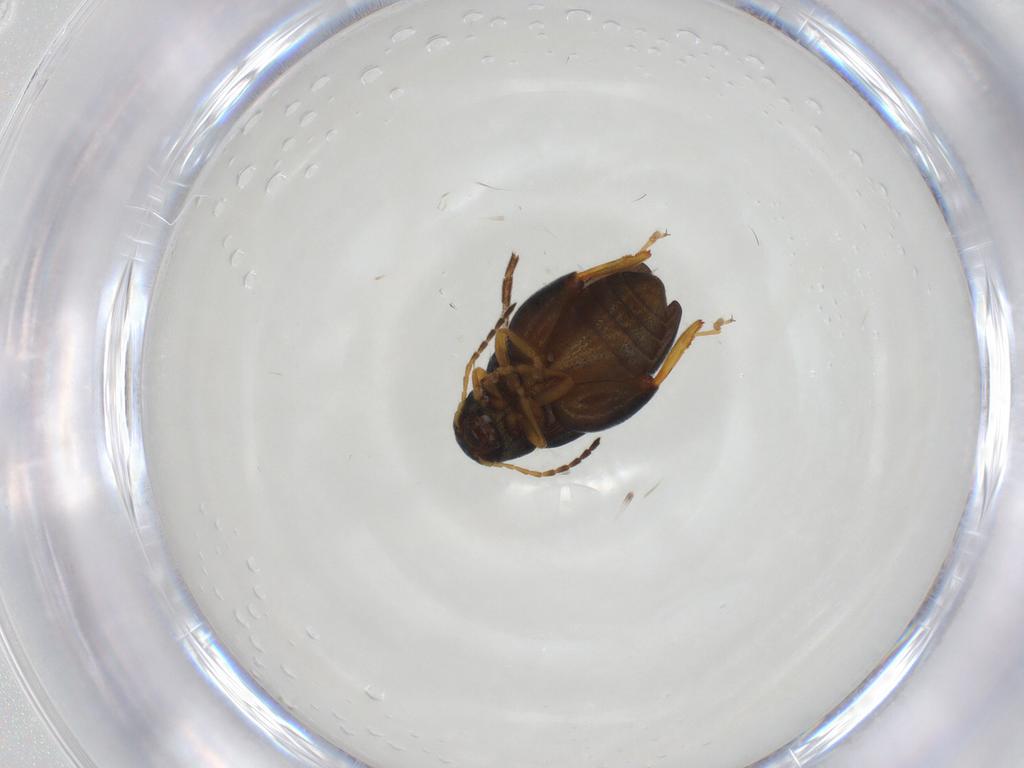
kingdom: Animalia
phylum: Arthropoda
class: Insecta
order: Coleoptera
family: Chrysomelidae
